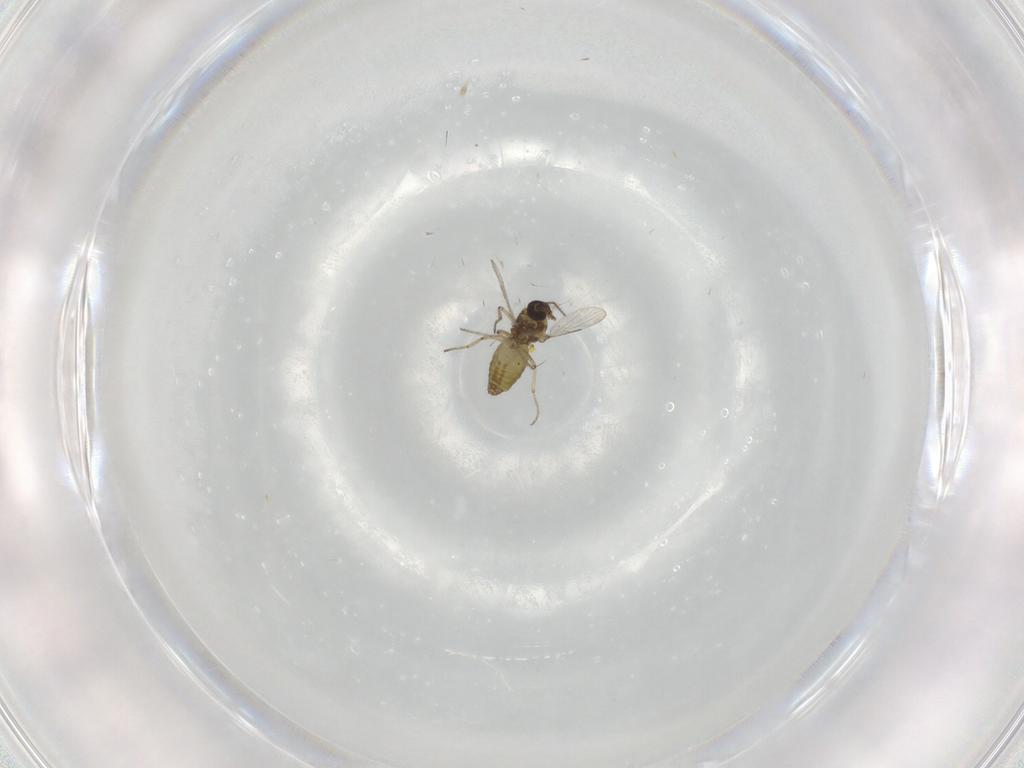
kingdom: Animalia
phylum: Arthropoda
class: Insecta
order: Diptera
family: Ceratopogonidae
